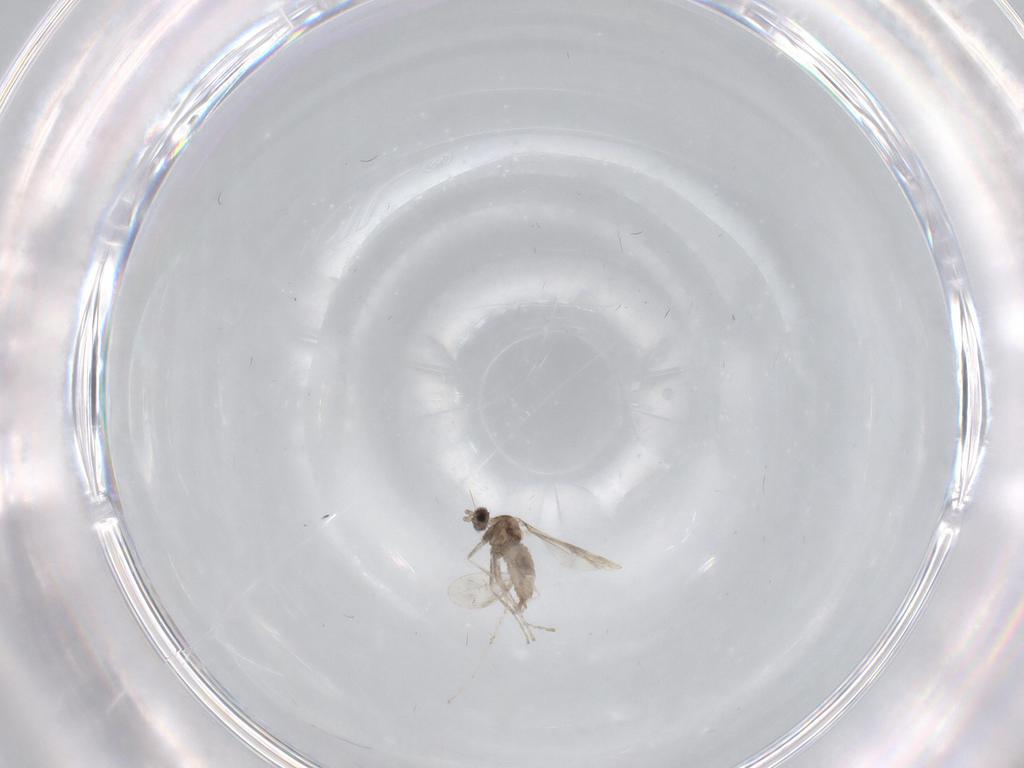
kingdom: Animalia
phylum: Arthropoda
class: Insecta
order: Diptera
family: Cecidomyiidae
